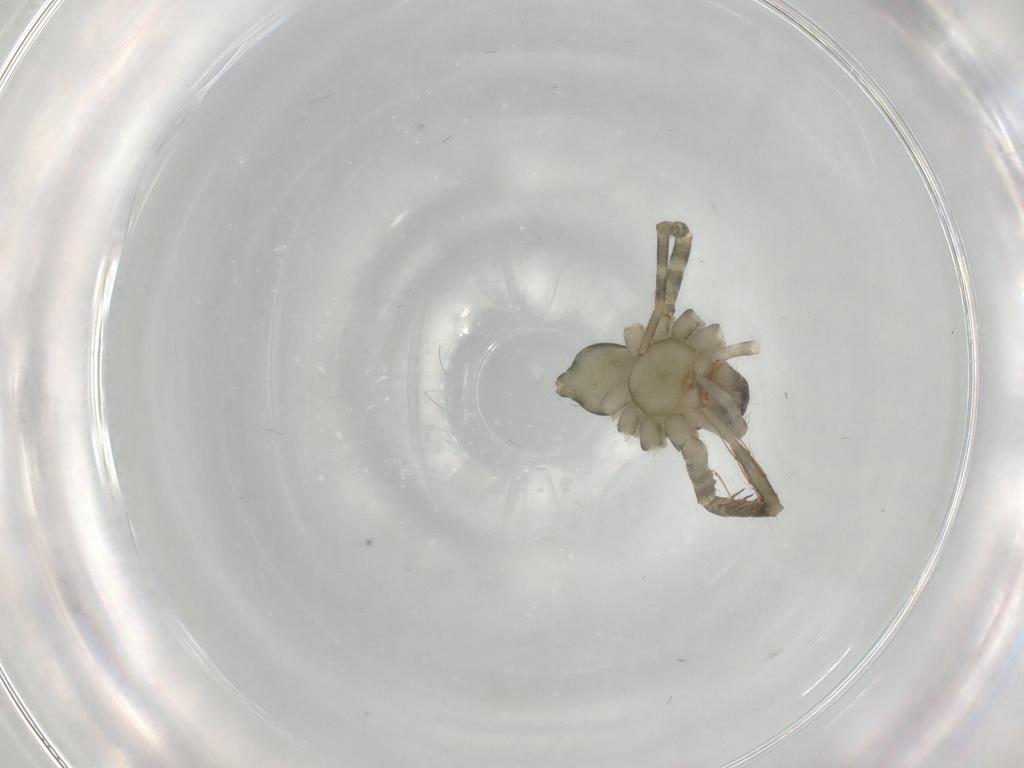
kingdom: Animalia
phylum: Arthropoda
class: Arachnida
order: Araneae
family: Ctenidae
